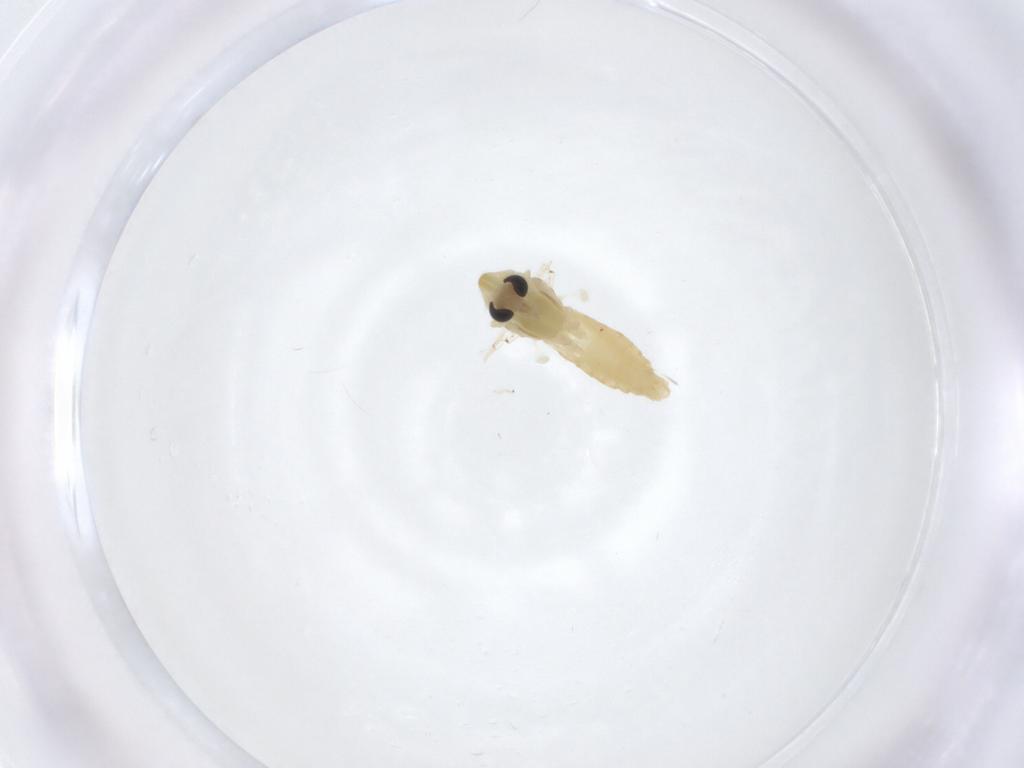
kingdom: Animalia
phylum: Arthropoda
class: Insecta
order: Diptera
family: Chironomidae
